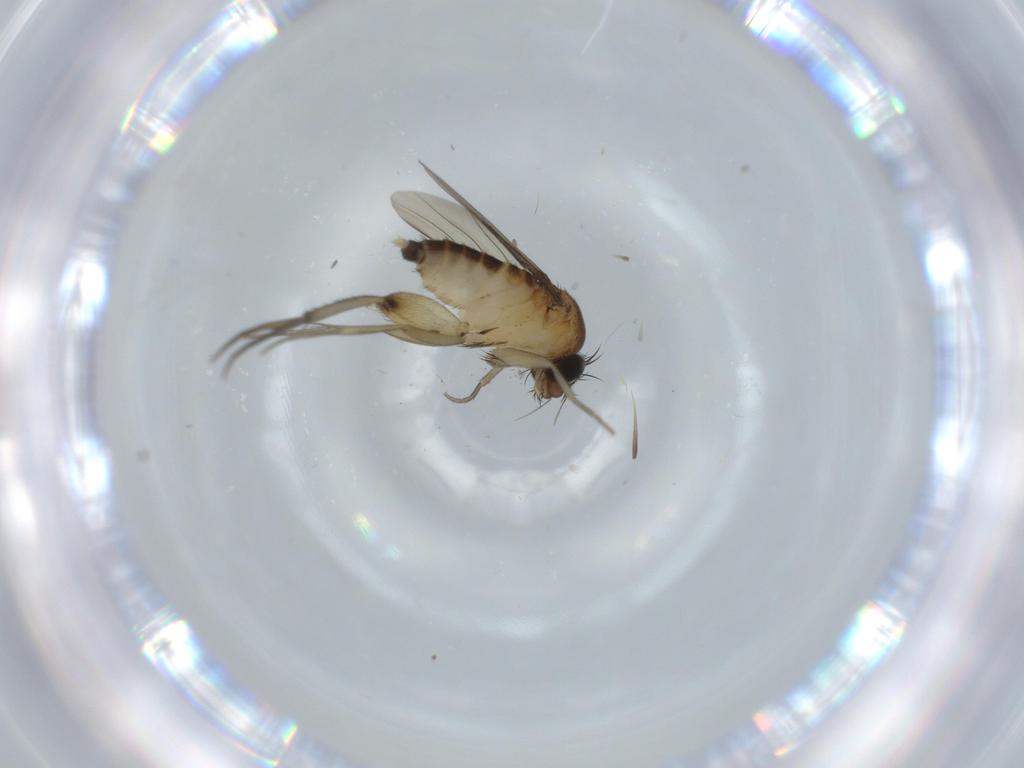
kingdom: Animalia
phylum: Arthropoda
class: Insecta
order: Diptera
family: Phoridae
